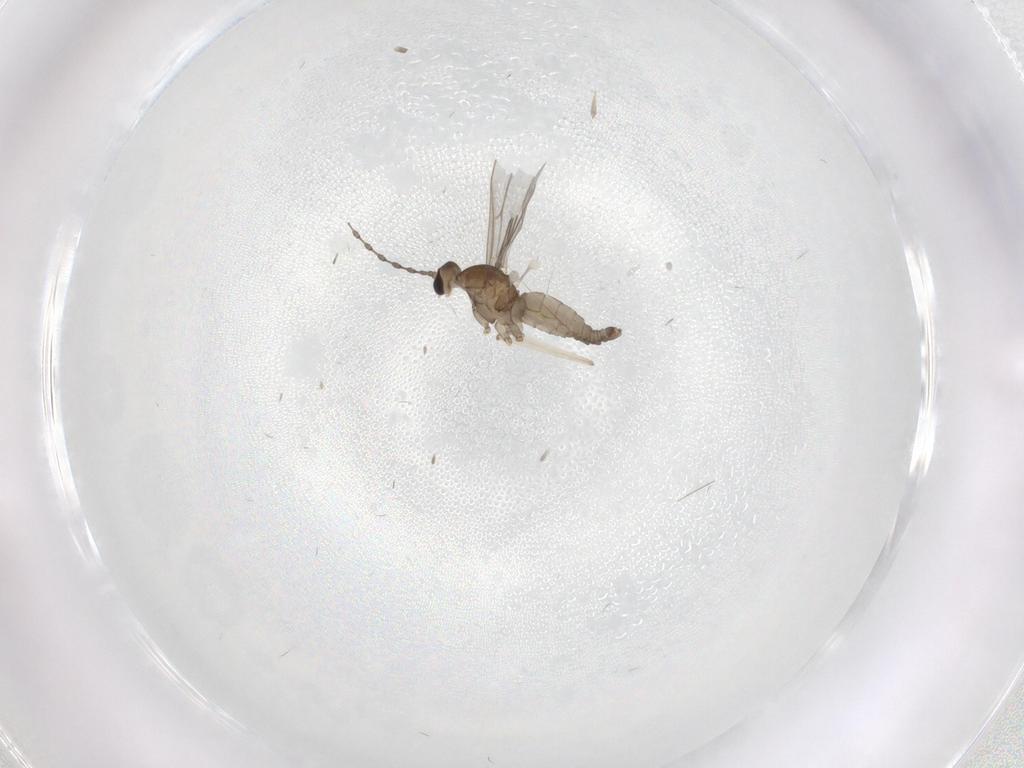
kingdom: Animalia
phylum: Arthropoda
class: Insecta
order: Diptera
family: Cecidomyiidae
